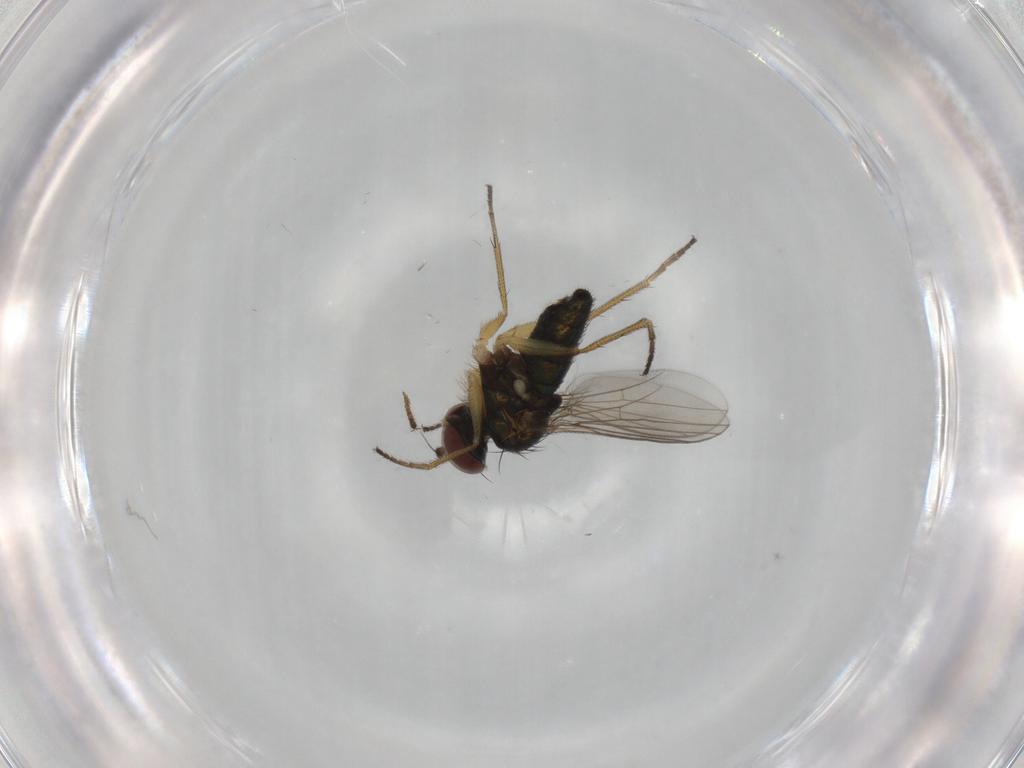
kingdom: Animalia
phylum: Arthropoda
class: Insecta
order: Diptera
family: Dolichopodidae
